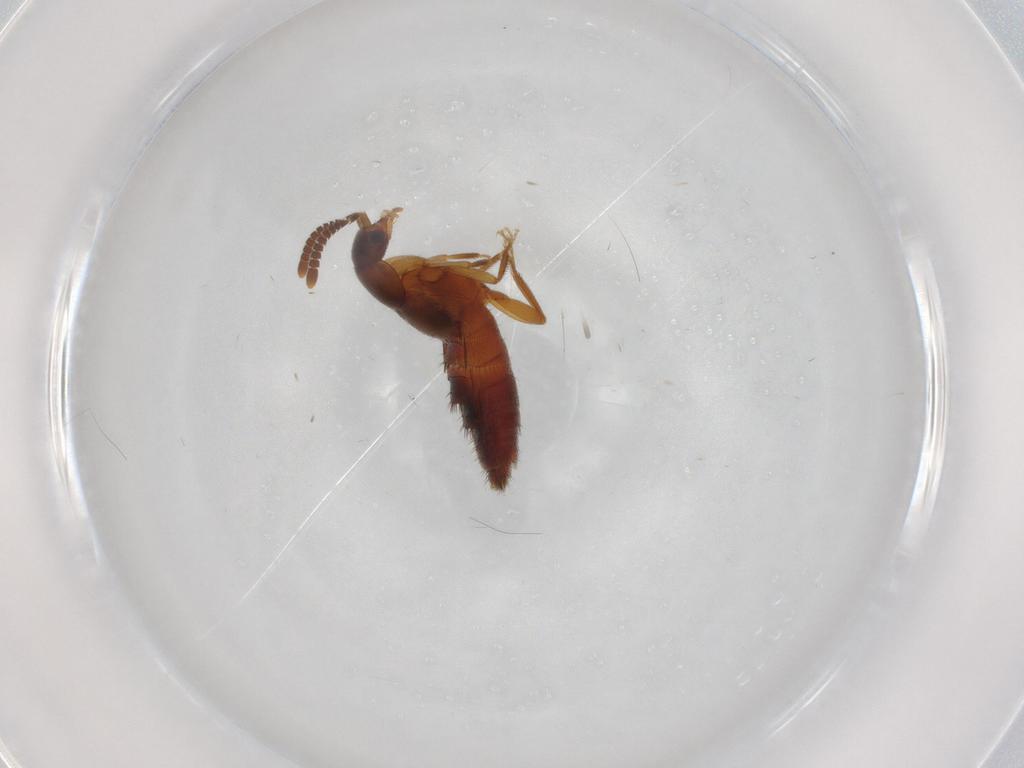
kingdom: Animalia
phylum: Arthropoda
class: Insecta
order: Coleoptera
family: Staphylinidae
